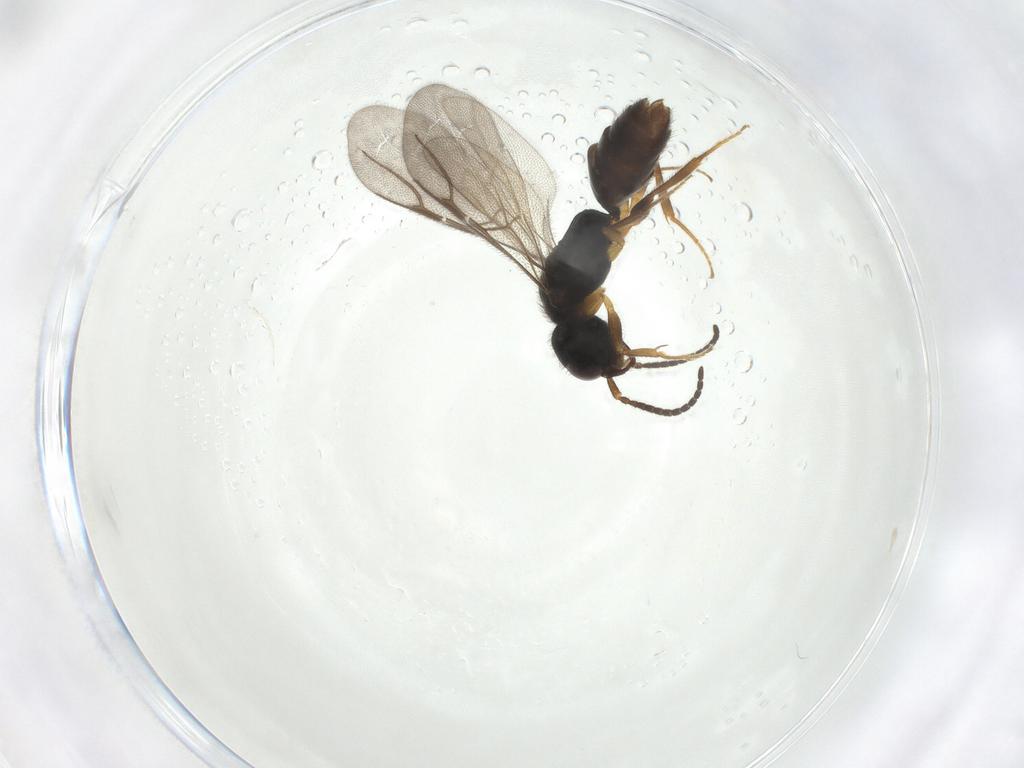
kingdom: Animalia
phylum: Arthropoda
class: Insecta
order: Hymenoptera
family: Bethylidae
